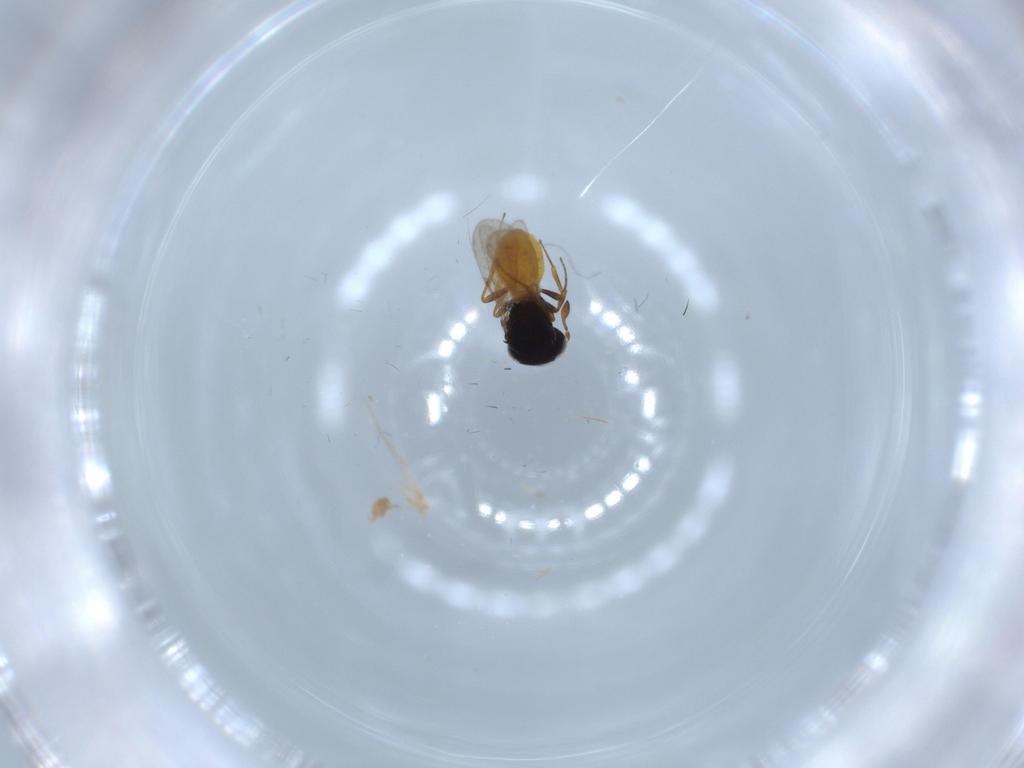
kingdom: Animalia
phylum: Arthropoda
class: Insecta
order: Hymenoptera
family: Scelionidae
